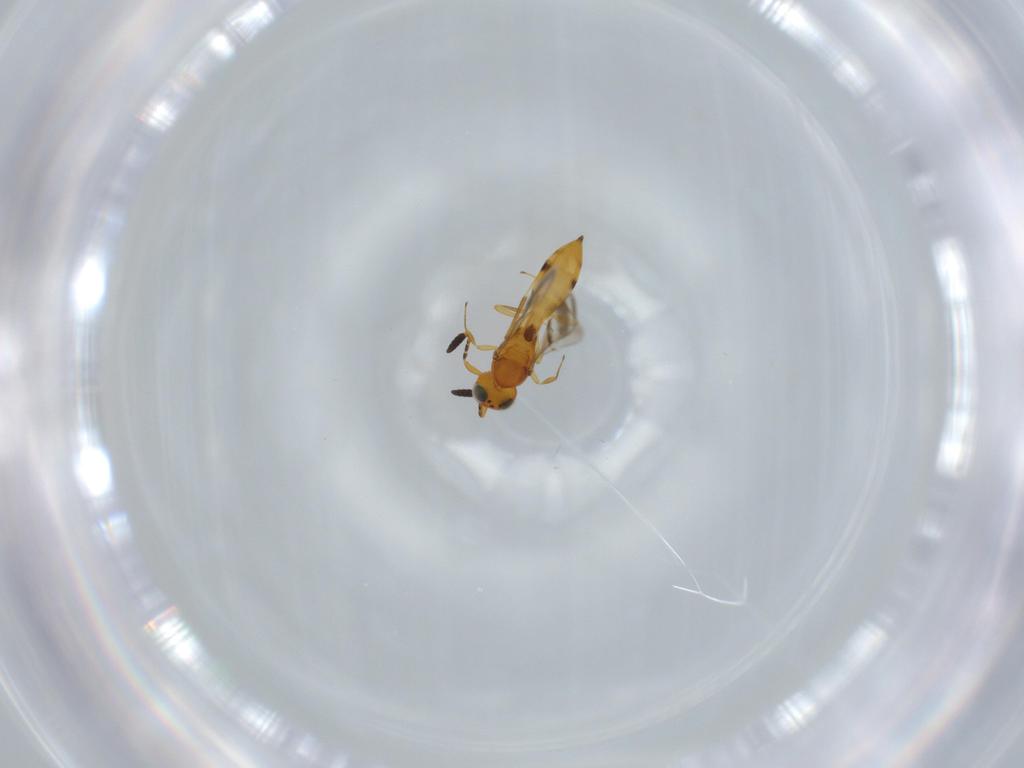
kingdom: Animalia
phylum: Arthropoda
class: Insecta
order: Hymenoptera
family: Scelionidae
